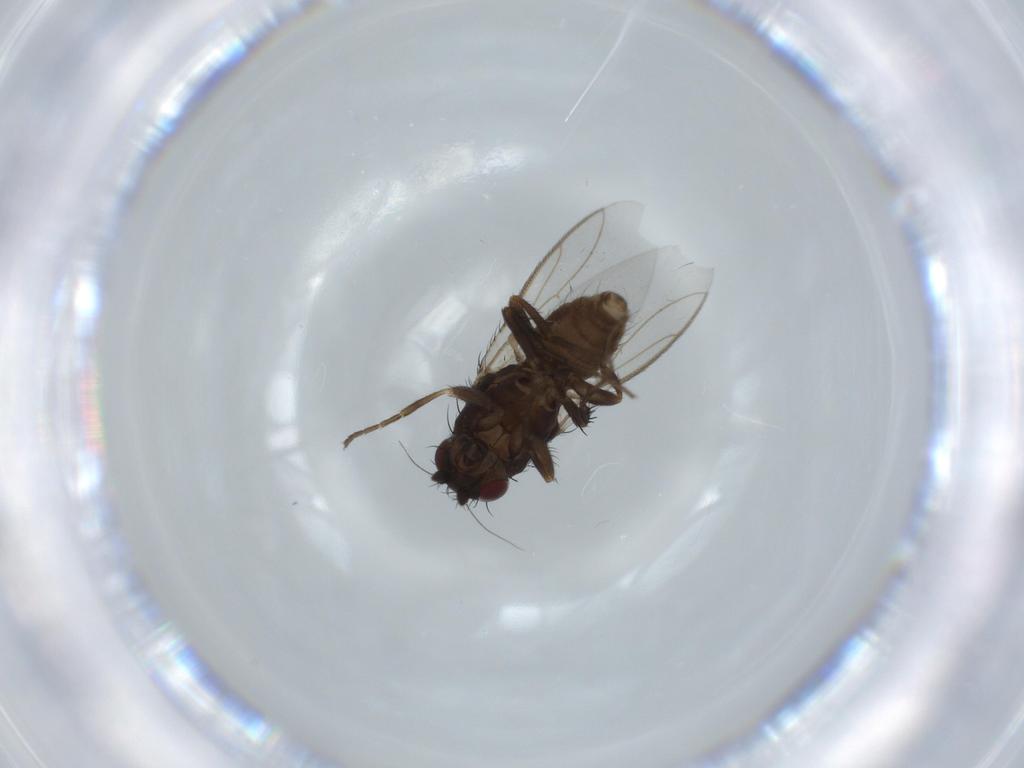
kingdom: Animalia
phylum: Arthropoda
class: Insecta
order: Diptera
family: Sphaeroceridae
